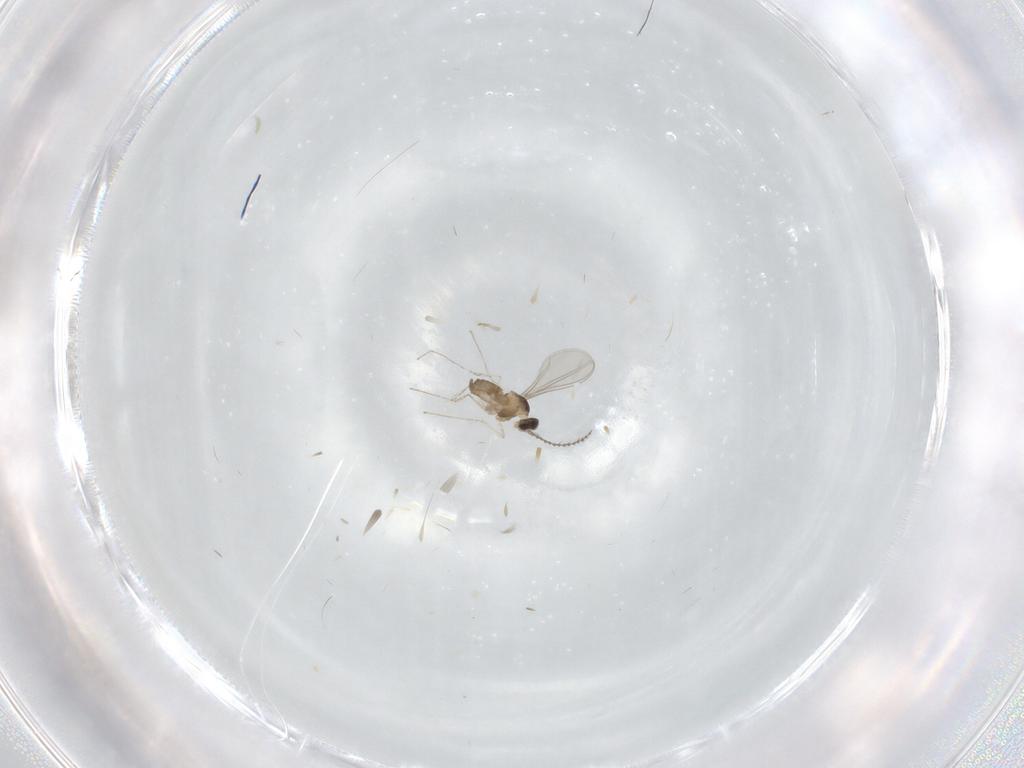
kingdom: Animalia
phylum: Arthropoda
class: Insecta
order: Diptera
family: Cecidomyiidae
